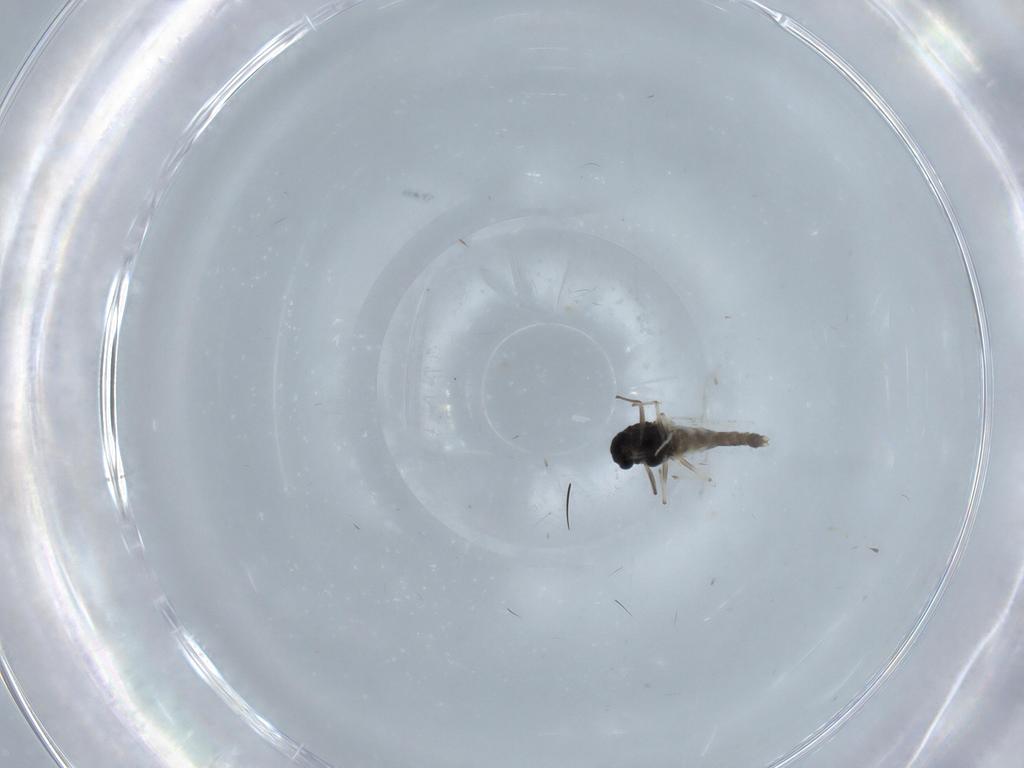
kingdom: Animalia
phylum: Arthropoda
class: Insecta
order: Diptera
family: Chironomidae
